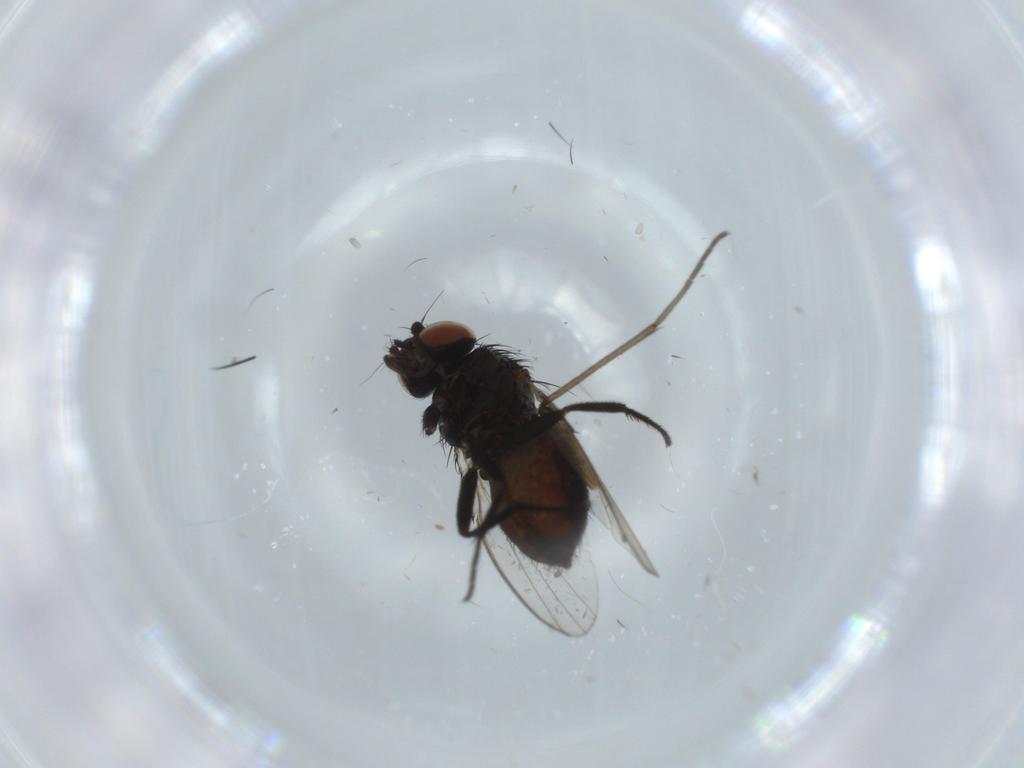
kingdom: Animalia
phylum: Arthropoda
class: Insecta
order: Diptera
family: Milichiidae
